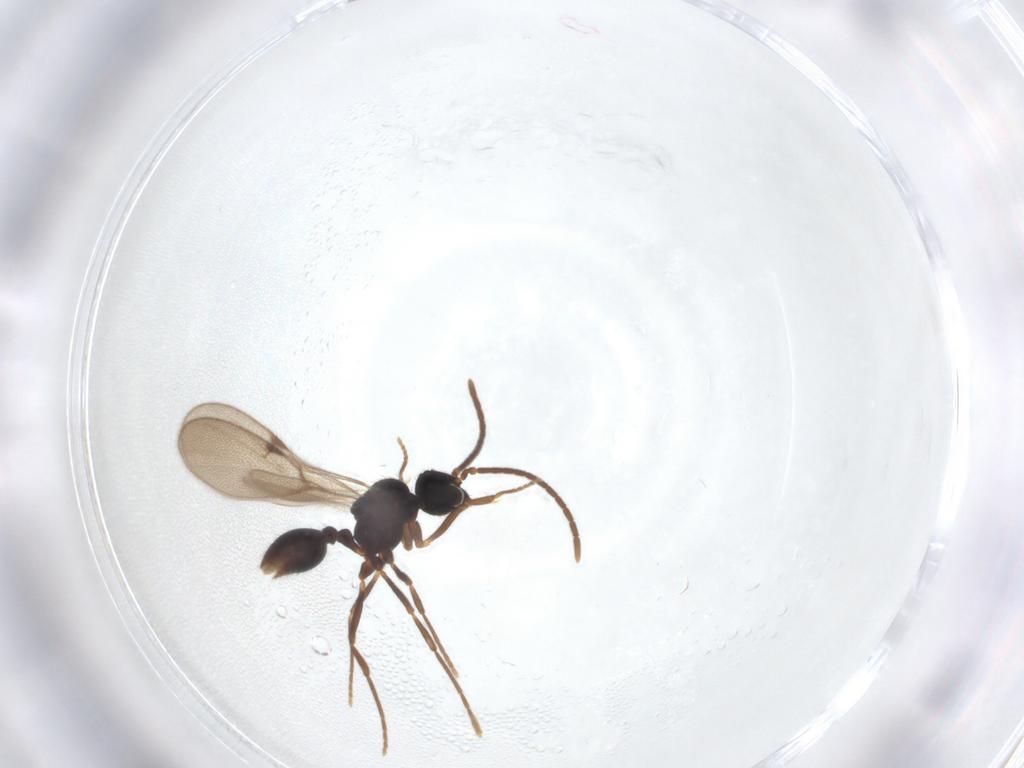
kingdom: Animalia
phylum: Arthropoda
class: Insecta
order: Hymenoptera
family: Formicidae
